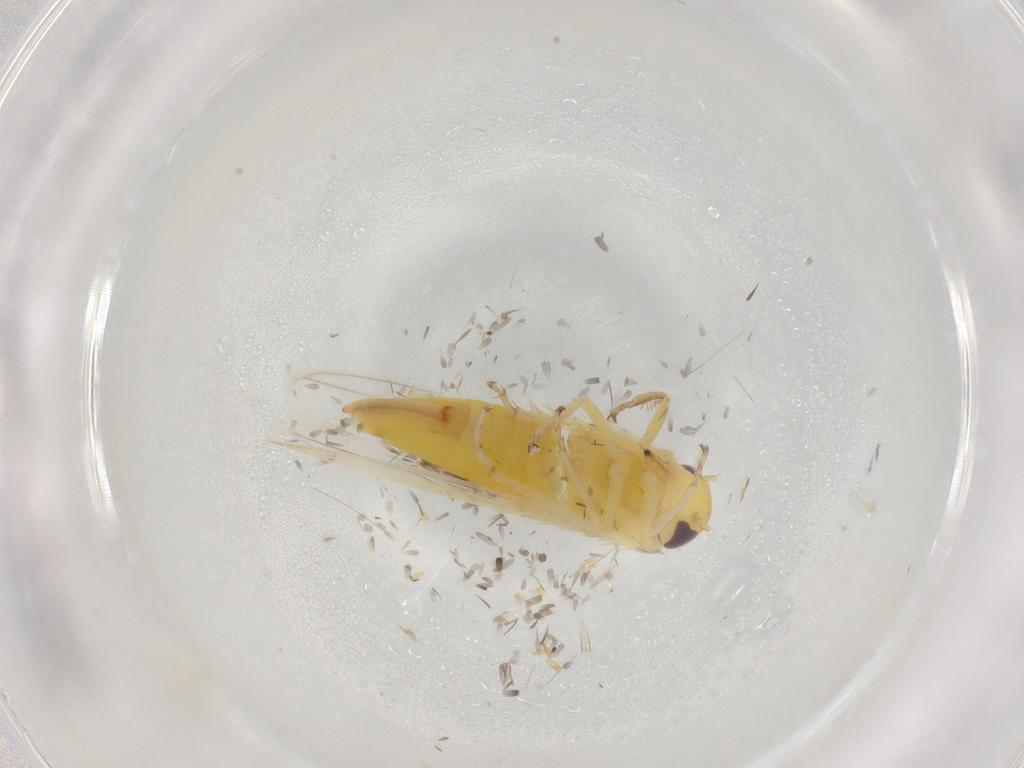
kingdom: Animalia
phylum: Arthropoda
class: Insecta
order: Hemiptera
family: Cicadellidae
